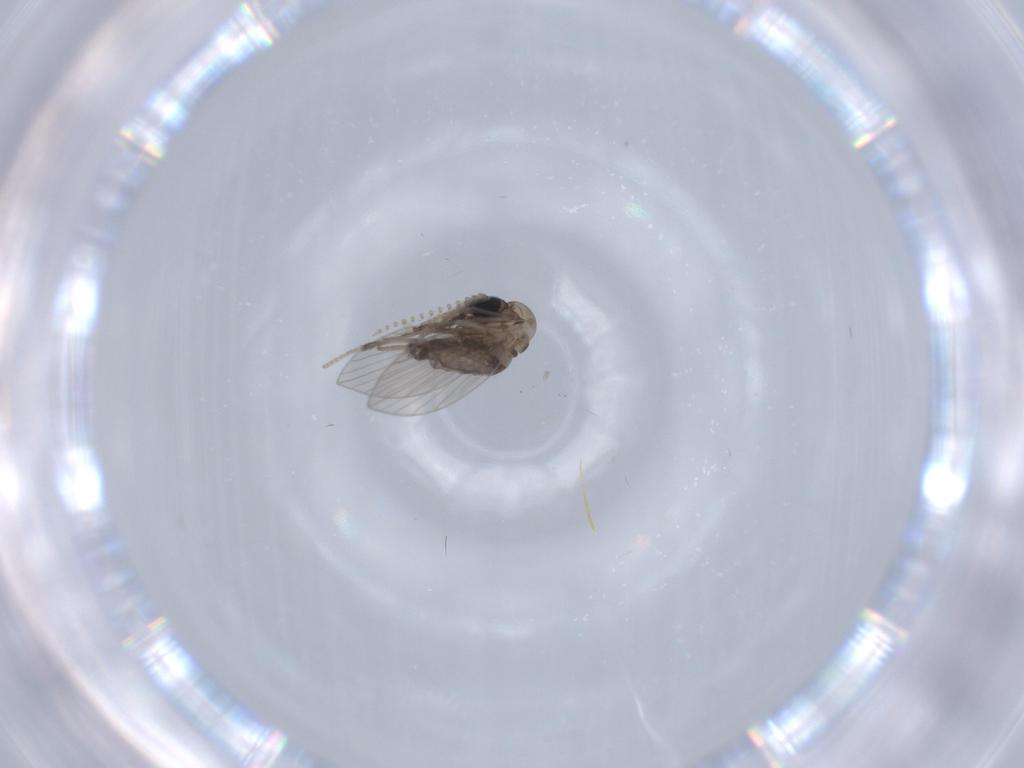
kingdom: Animalia
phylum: Arthropoda
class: Insecta
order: Diptera
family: Psychodidae
